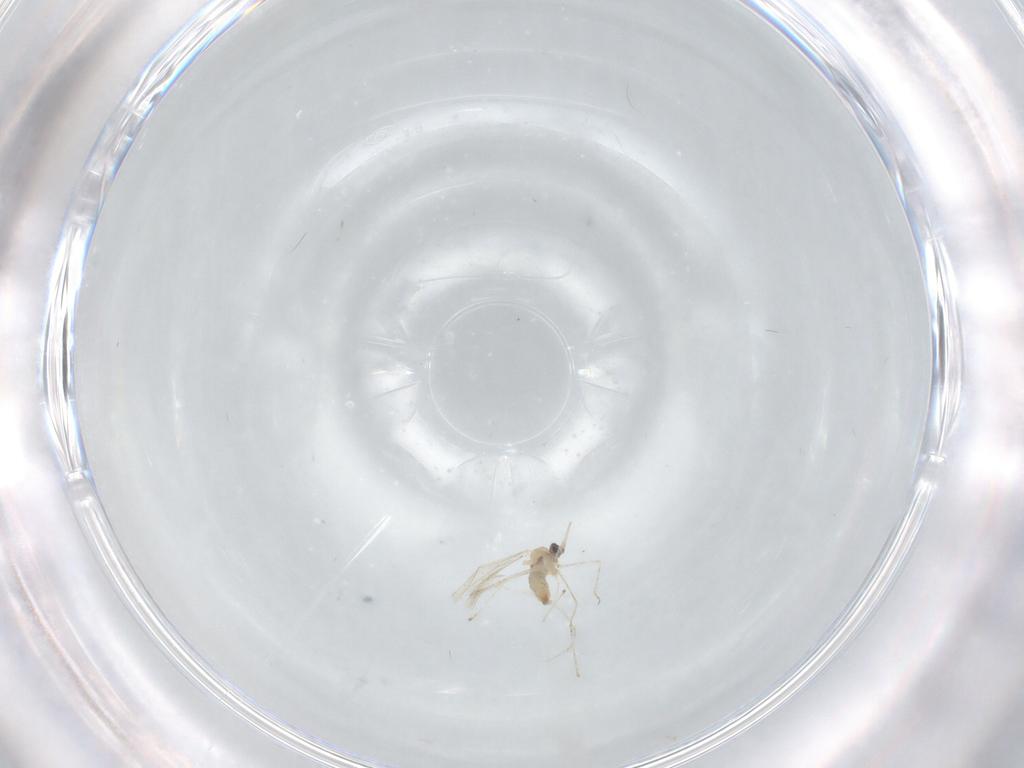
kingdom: Animalia
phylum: Arthropoda
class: Insecta
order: Diptera
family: Cecidomyiidae
